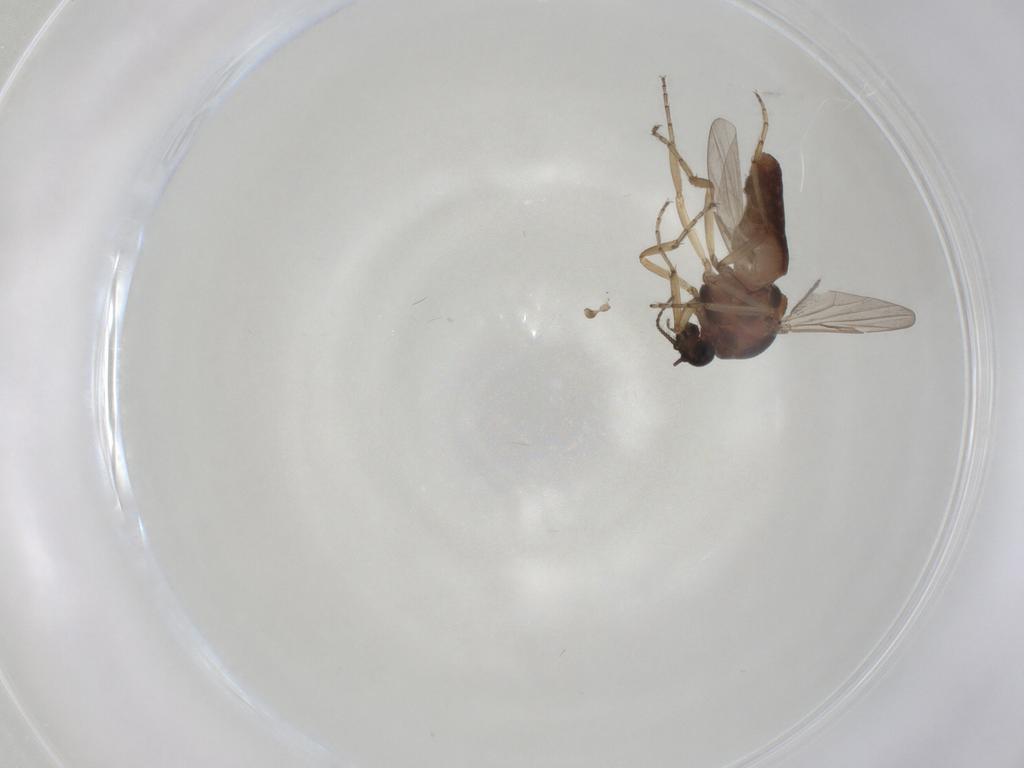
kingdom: Animalia
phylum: Arthropoda
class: Insecta
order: Diptera
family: Ceratopogonidae
